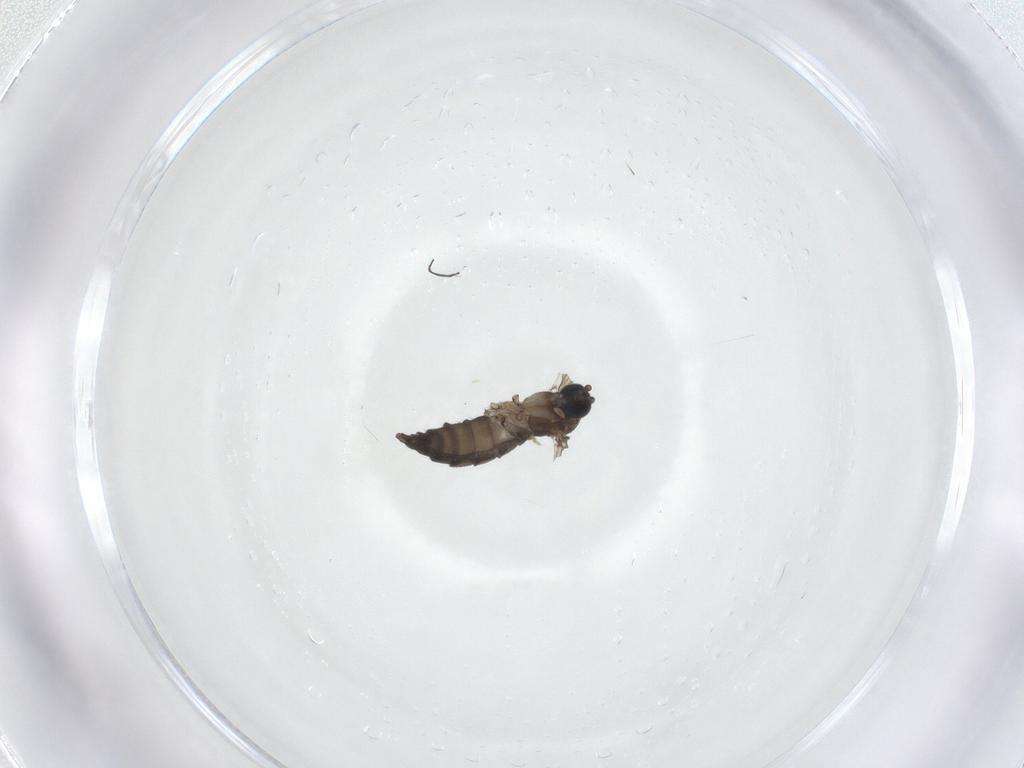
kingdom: Animalia
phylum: Arthropoda
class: Insecta
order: Diptera
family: Sciaridae
